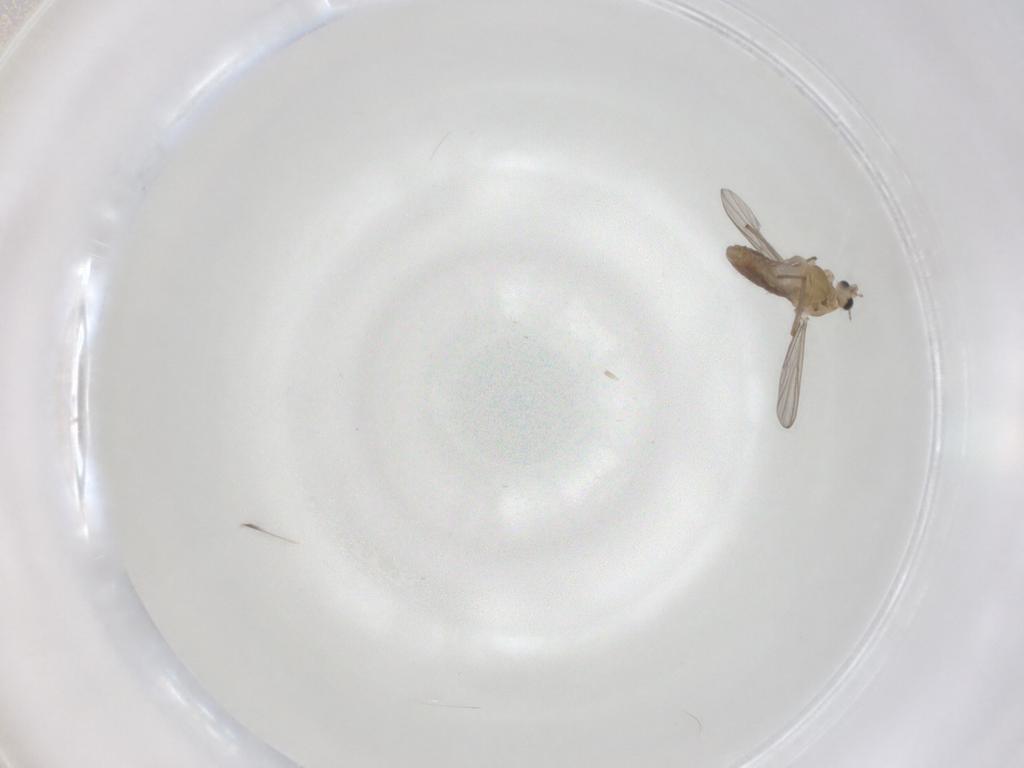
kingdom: Animalia
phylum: Arthropoda
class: Insecta
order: Diptera
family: Chironomidae
